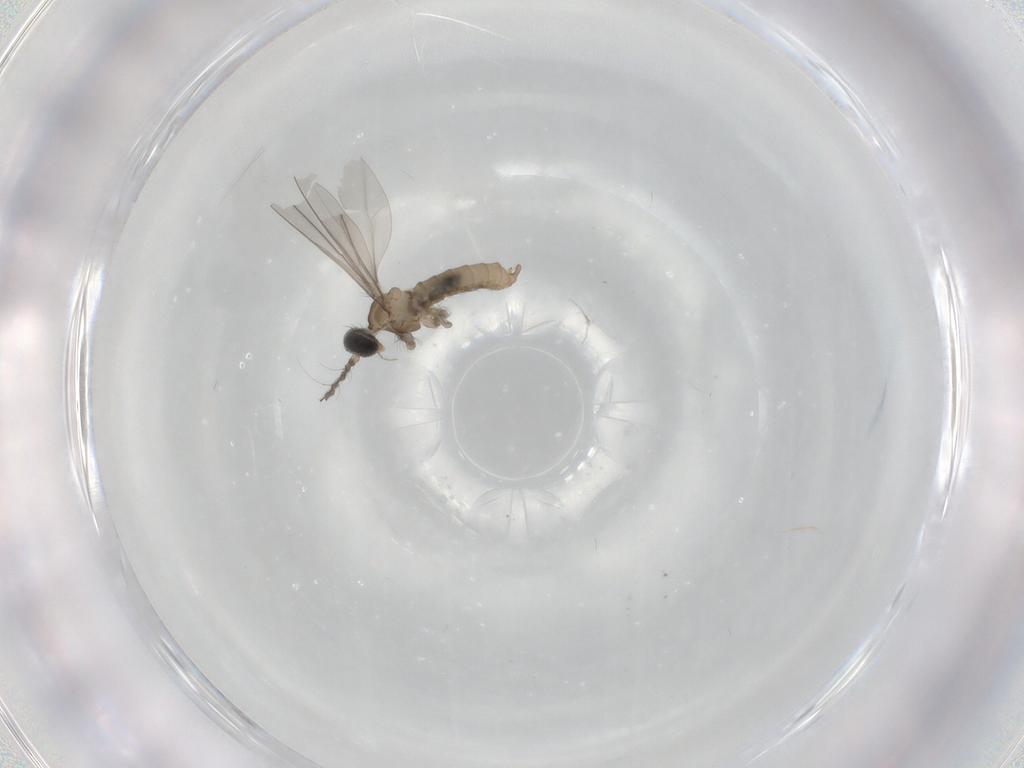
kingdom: Animalia
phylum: Arthropoda
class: Insecta
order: Diptera
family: Cecidomyiidae
